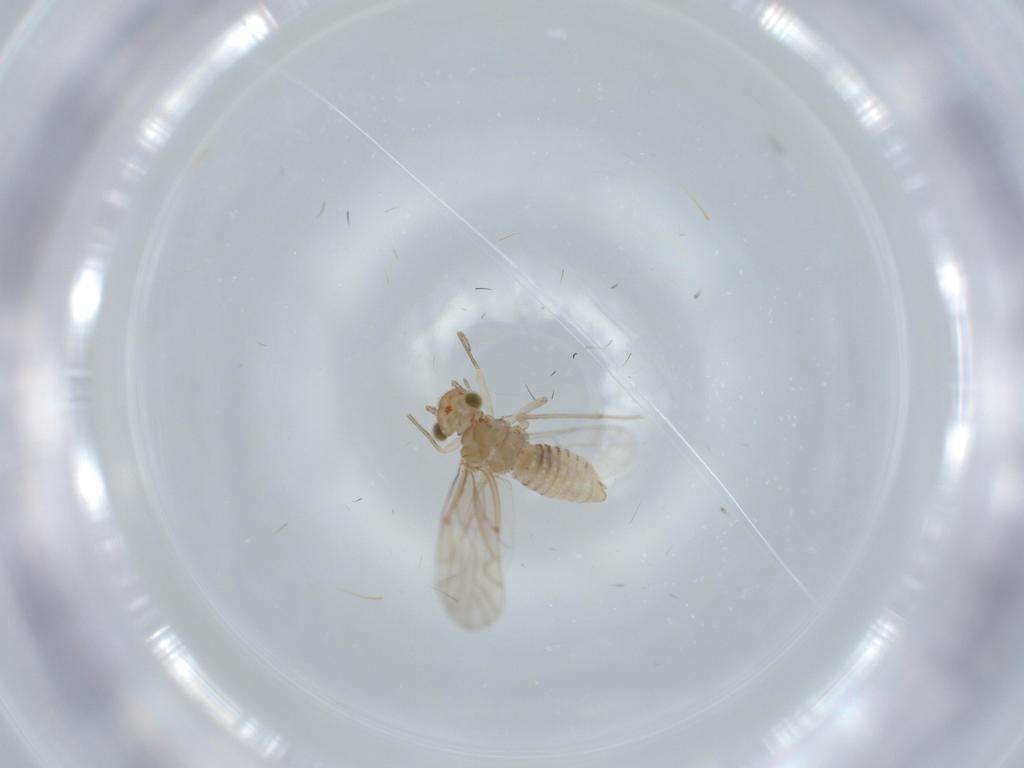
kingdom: Animalia
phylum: Arthropoda
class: Insecta
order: Psocodea
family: Lachesillidae
